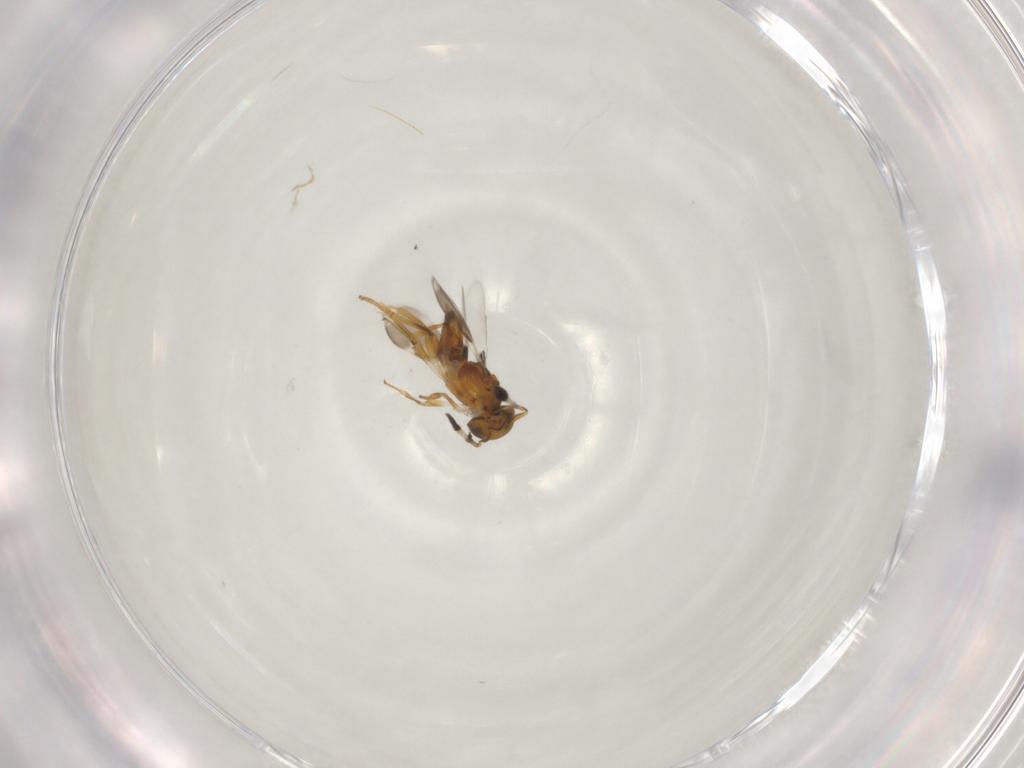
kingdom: Animalia
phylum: Arthropoda
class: Insecta
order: Hymenoptera
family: Encyrtidae
